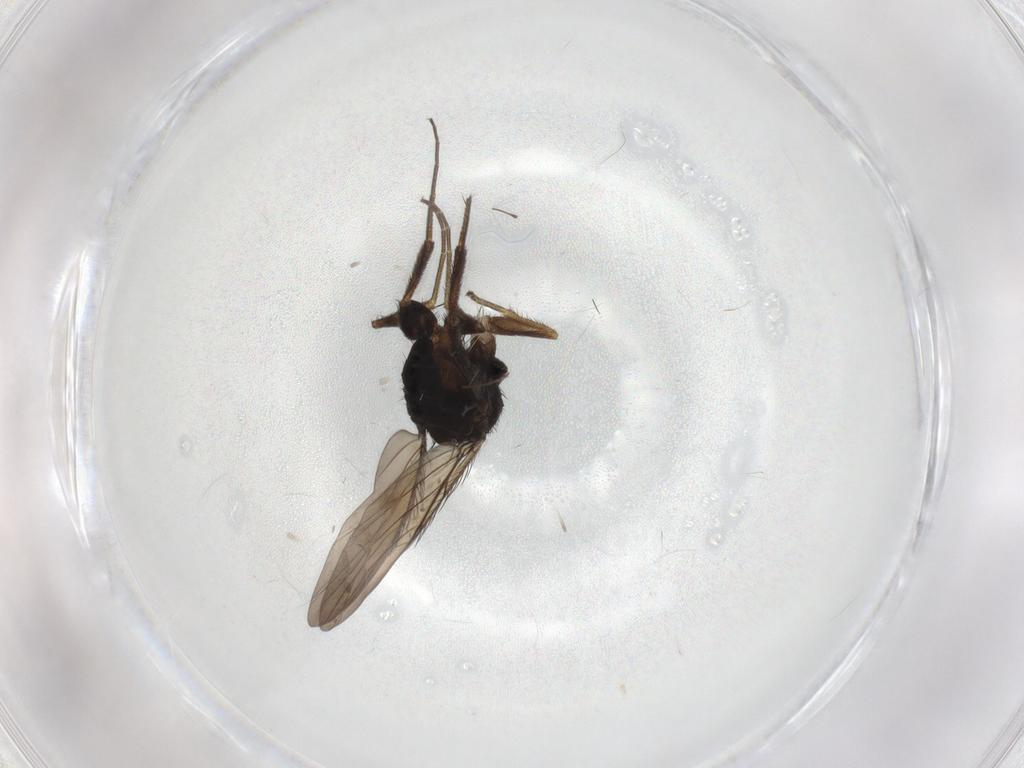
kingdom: Animalia
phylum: Arthropoda
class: Insecta
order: Diptera
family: Phoridae
